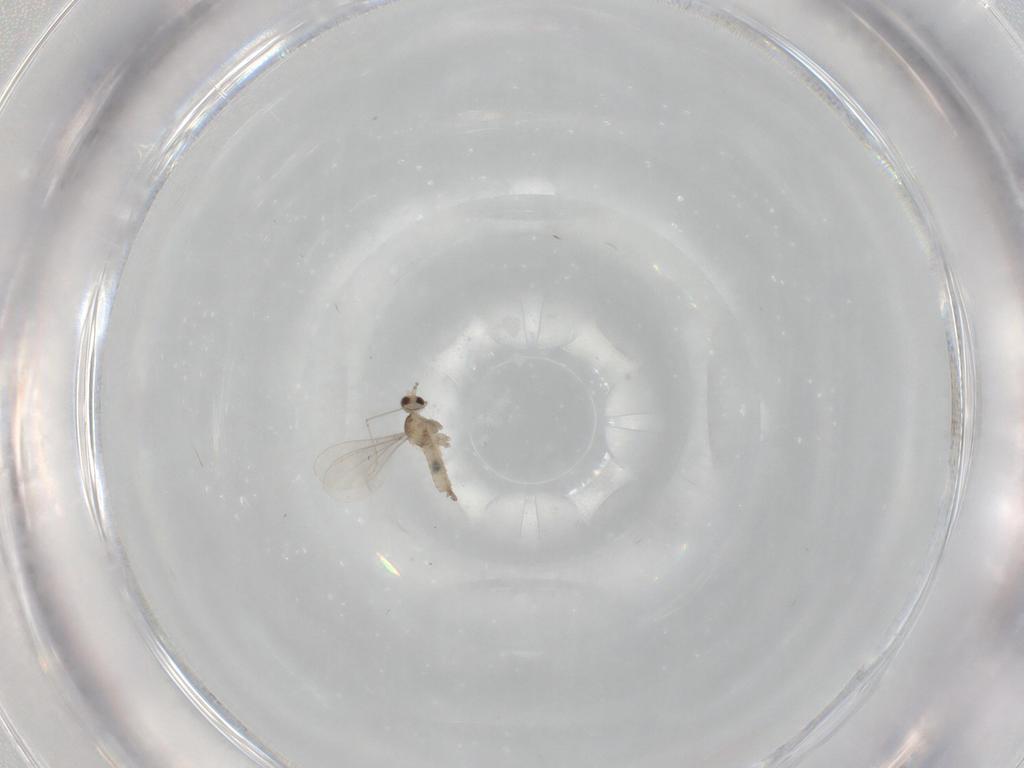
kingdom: Animalia
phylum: Arthropoda
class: Insecta
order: Diptera
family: Cecidomyiidae
